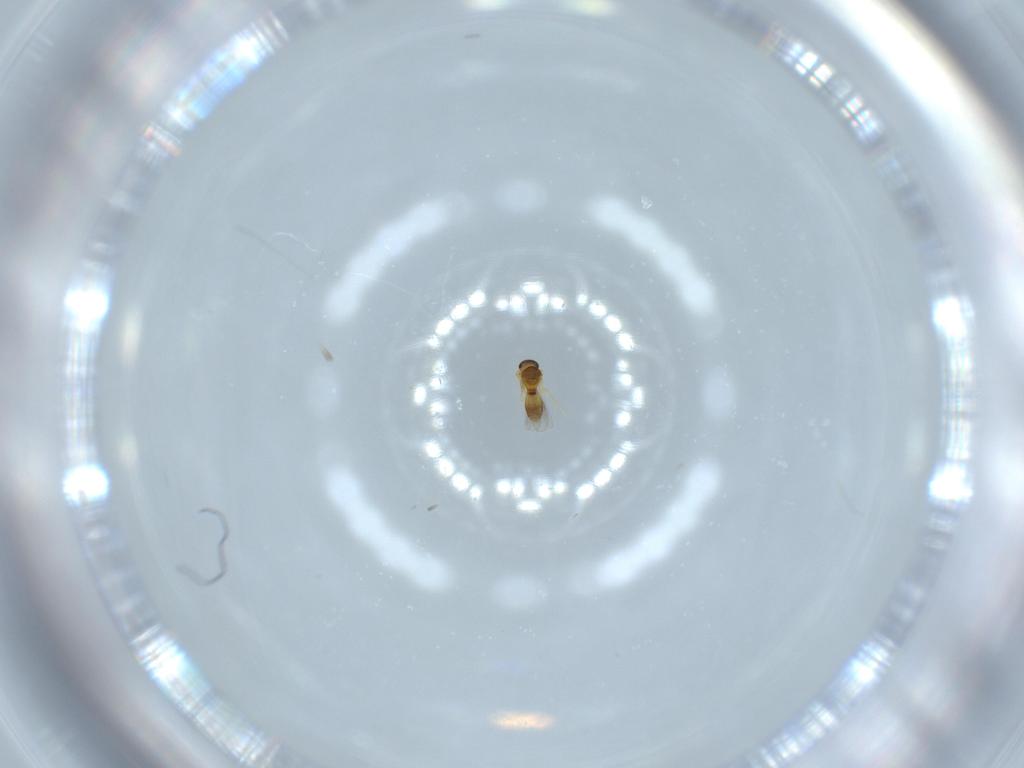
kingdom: Animalia
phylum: Arthropoda
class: Insecta
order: Hymenoptera
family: Platygastridae
